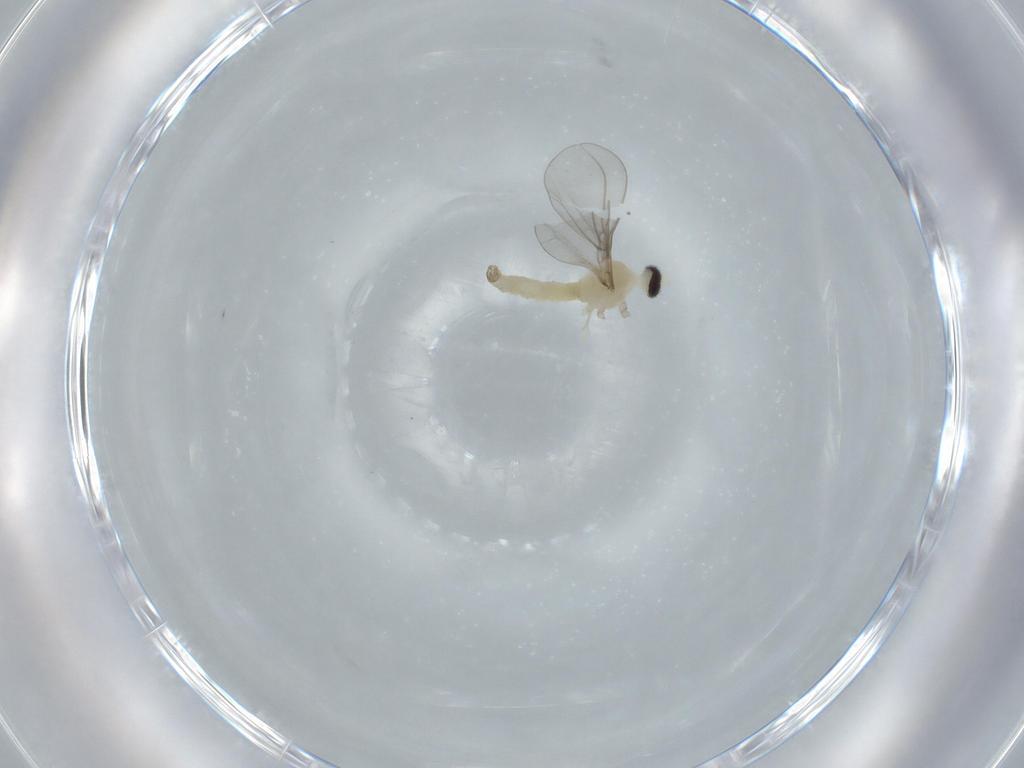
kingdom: Animalia
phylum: Arthropoda
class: Insecta
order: Diptera
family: Cecidomyiidae
